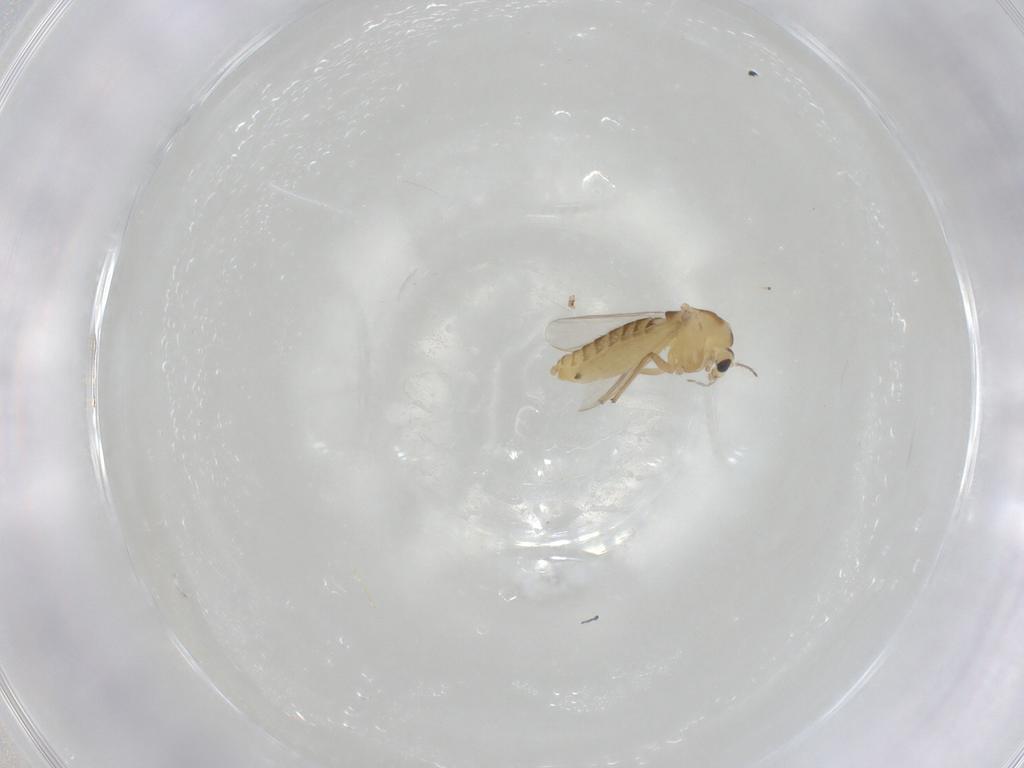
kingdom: Animalia
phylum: Arthropoda
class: Insecta
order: Diptera
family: Chironomidae
